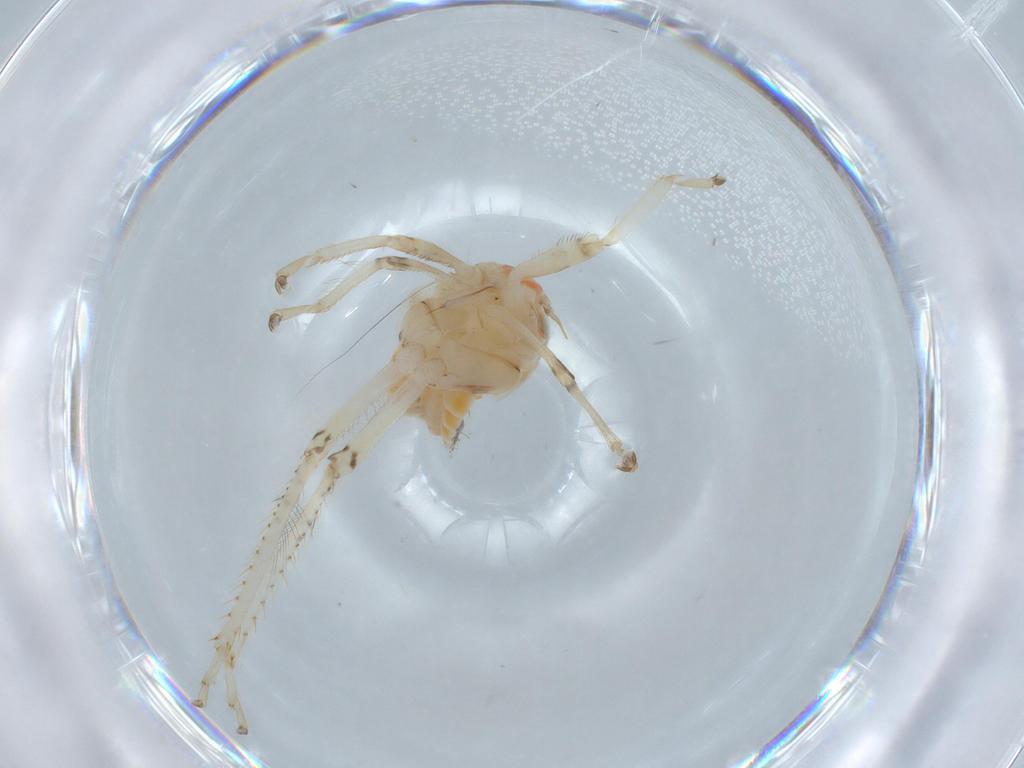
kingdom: Animalia
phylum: Arthropoda
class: Insecta
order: Hemiptera
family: Cicadellidae
